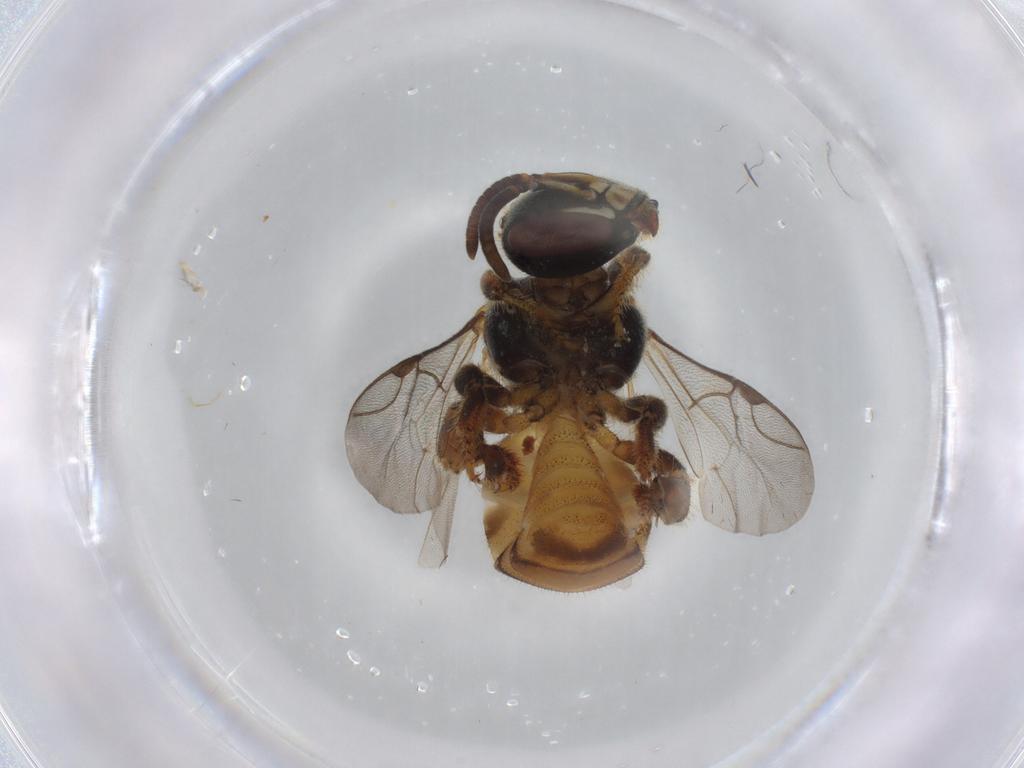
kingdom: Animalia
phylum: Arthropoda
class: Insecta
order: Hymenoptera
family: Apidae
